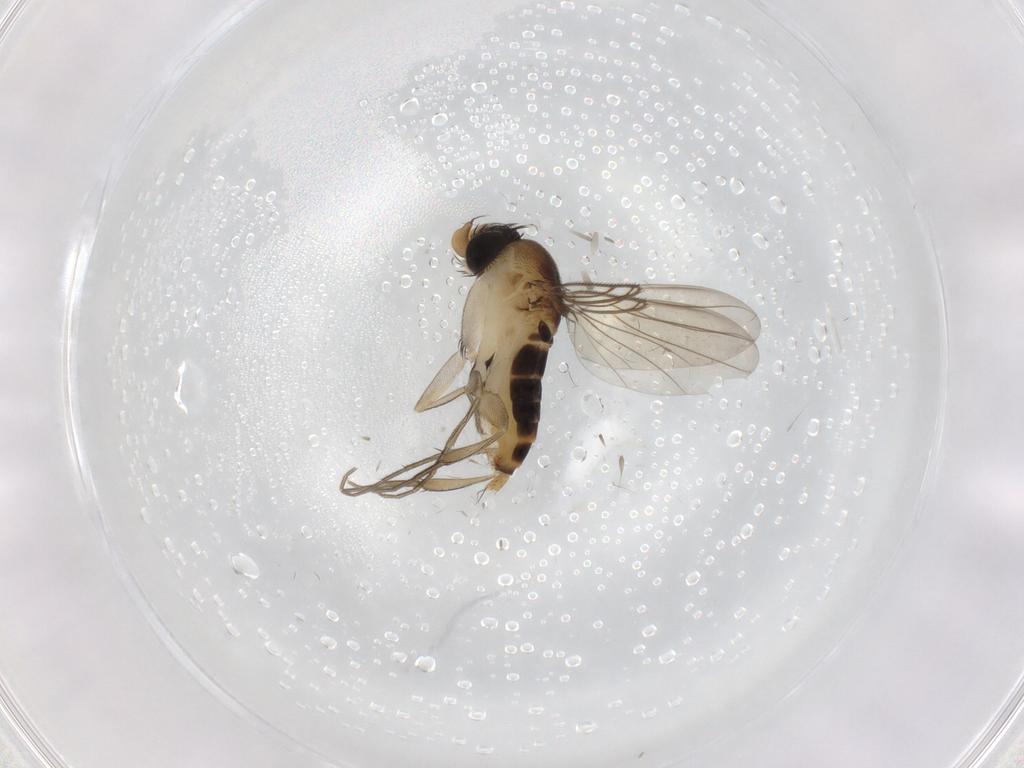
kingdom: Animalia
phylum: Arthropoda
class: Insecta
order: Diptera
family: Phoridae
